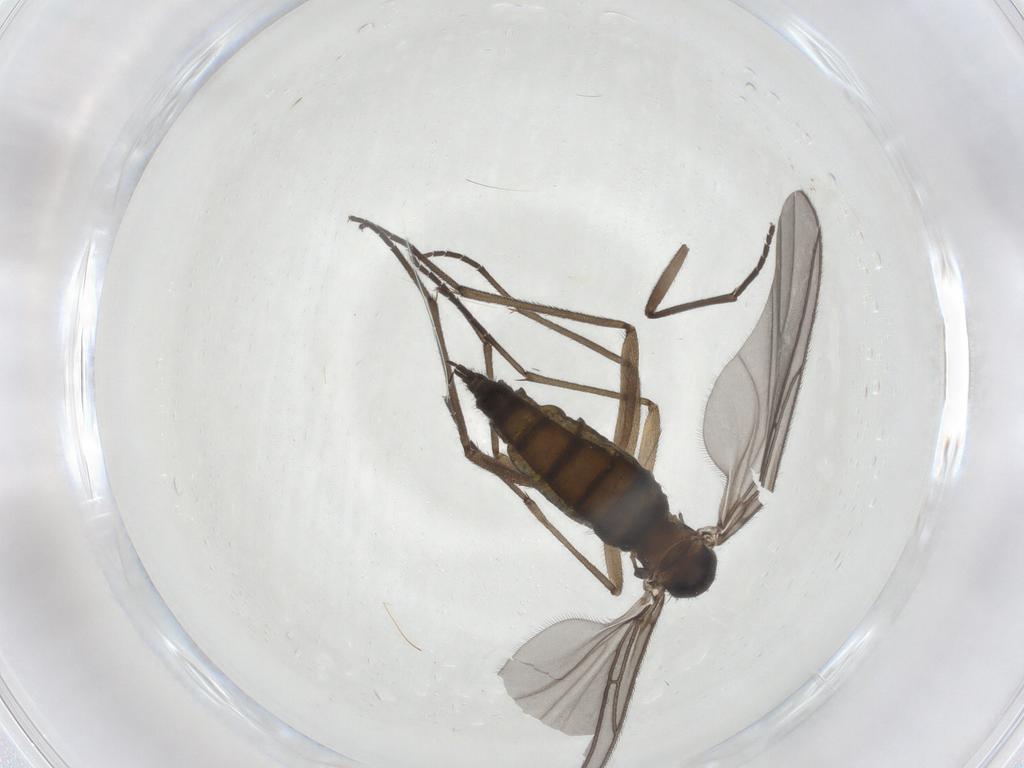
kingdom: Animalia
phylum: Arthropoda
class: Insecta
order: Diptera
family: Sciaridae
